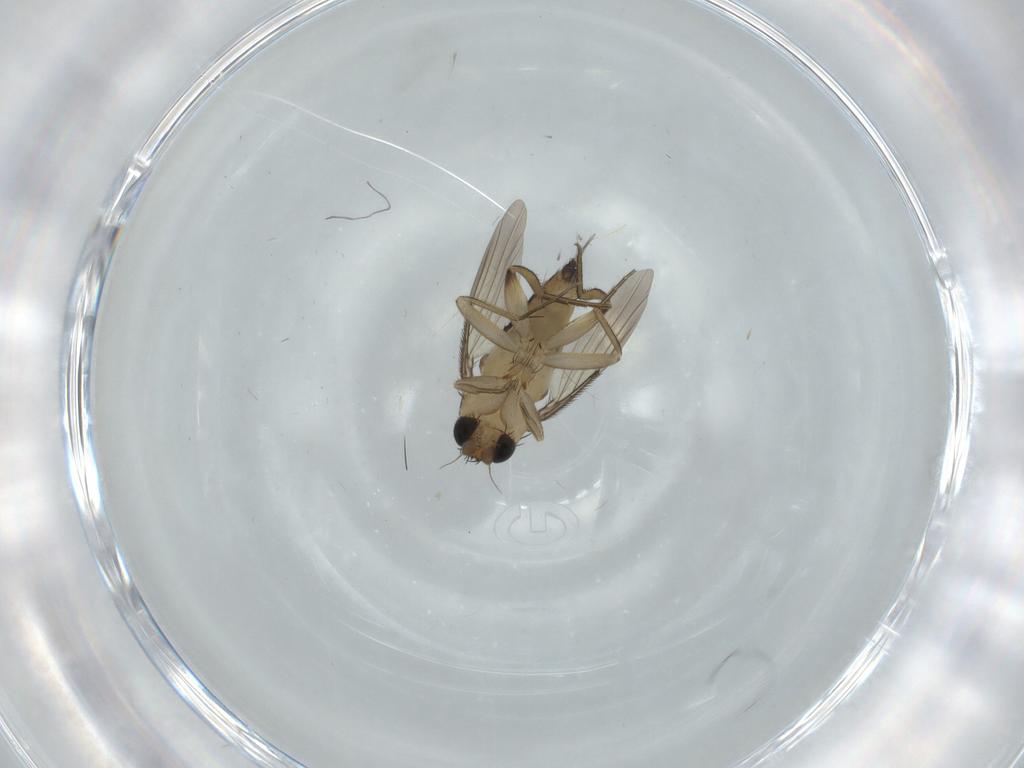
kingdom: Animalia
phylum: Arthropoda
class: Insecta
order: Diptera
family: Phoridae
